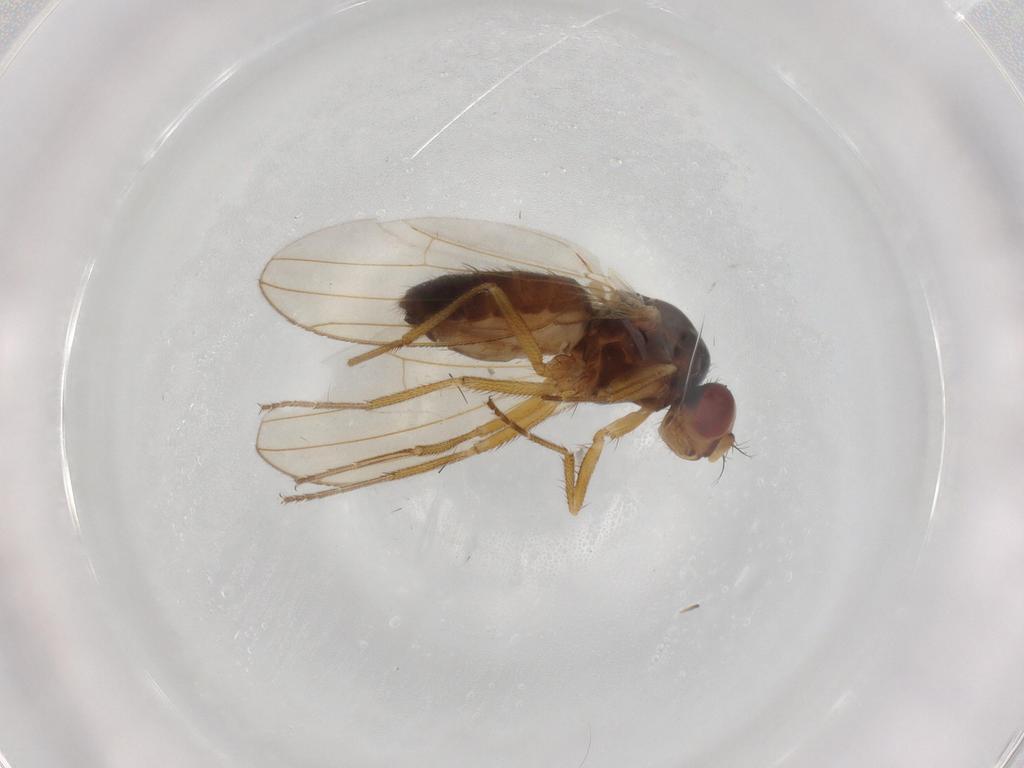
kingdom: Animalia
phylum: Arthropoda
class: Insecta
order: Diptera
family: Drosophilidae
